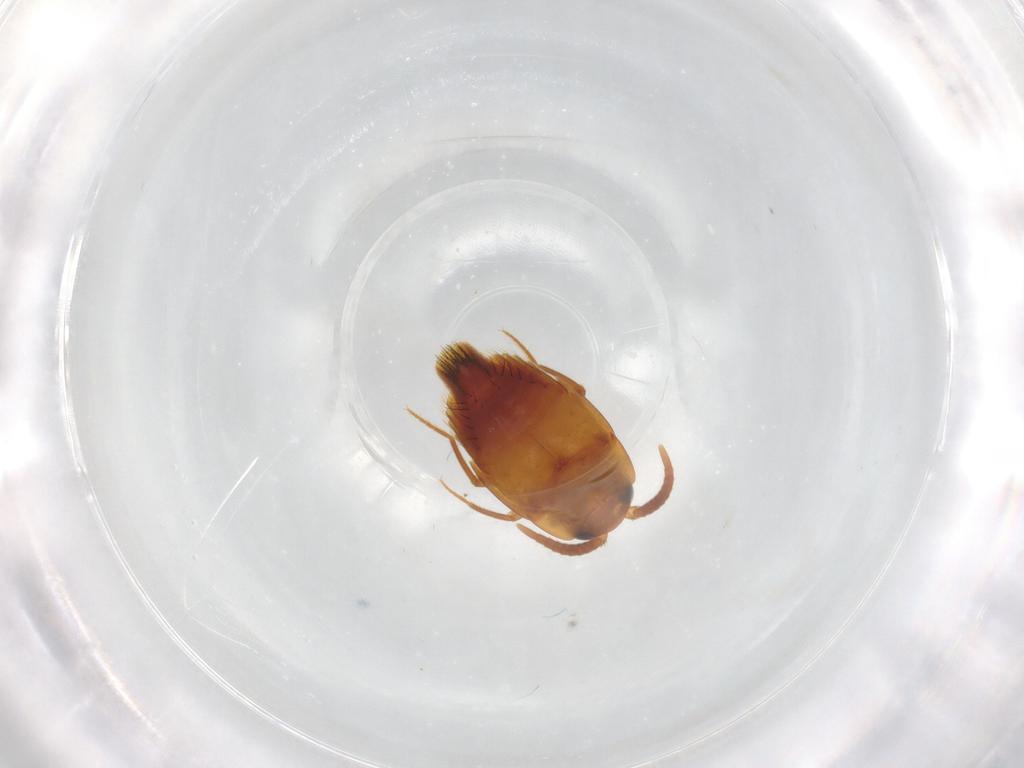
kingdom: Animalia
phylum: Arthropoda
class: Insecta
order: Coleoptera
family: Staphylinidae
